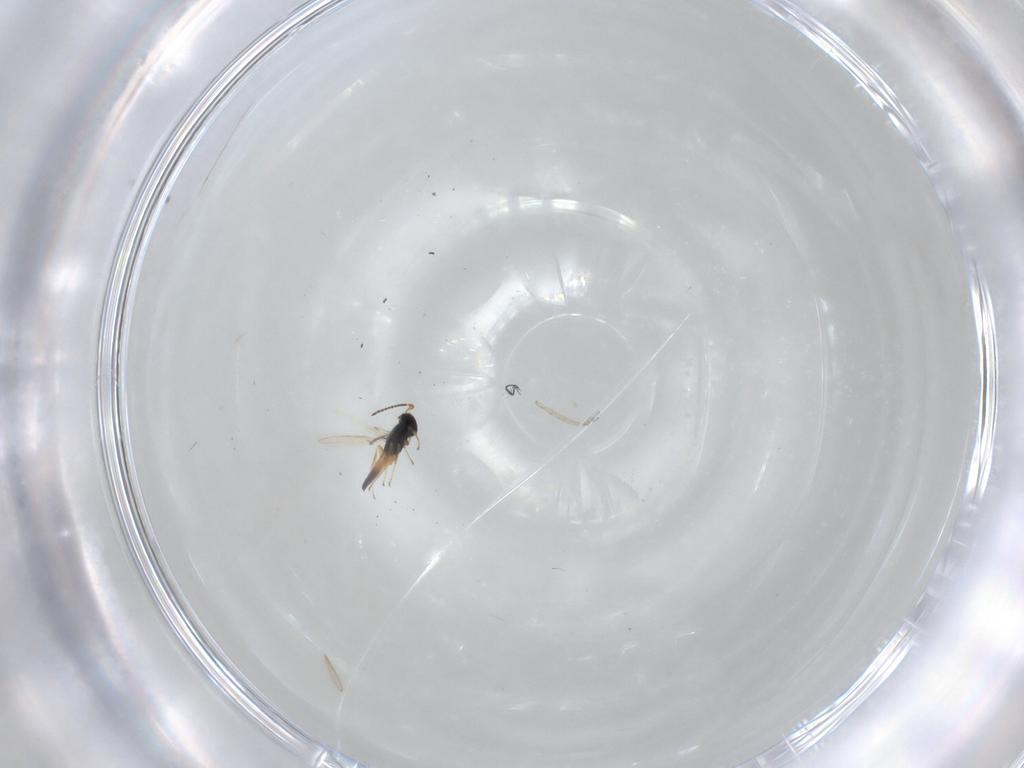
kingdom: Animalia
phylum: Arthropoda
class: Insecta
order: Hymenoptera
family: Scelionidae
